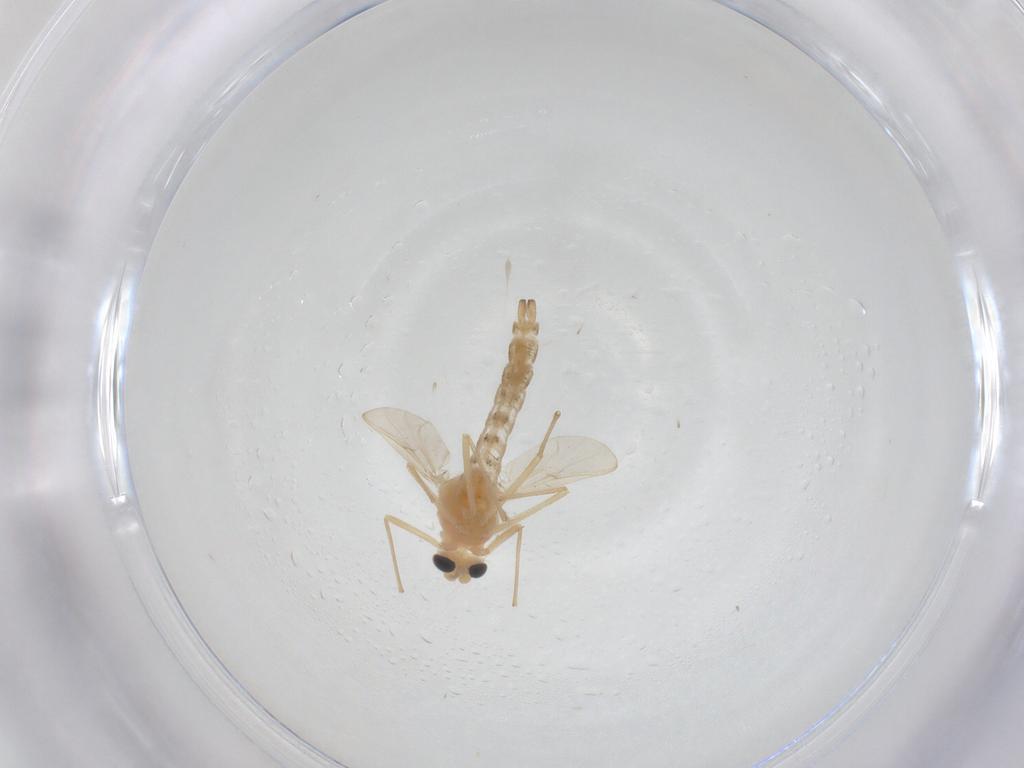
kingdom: Animalia
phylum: Arthropoda
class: Insecta
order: Diptera
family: Chironomidae
